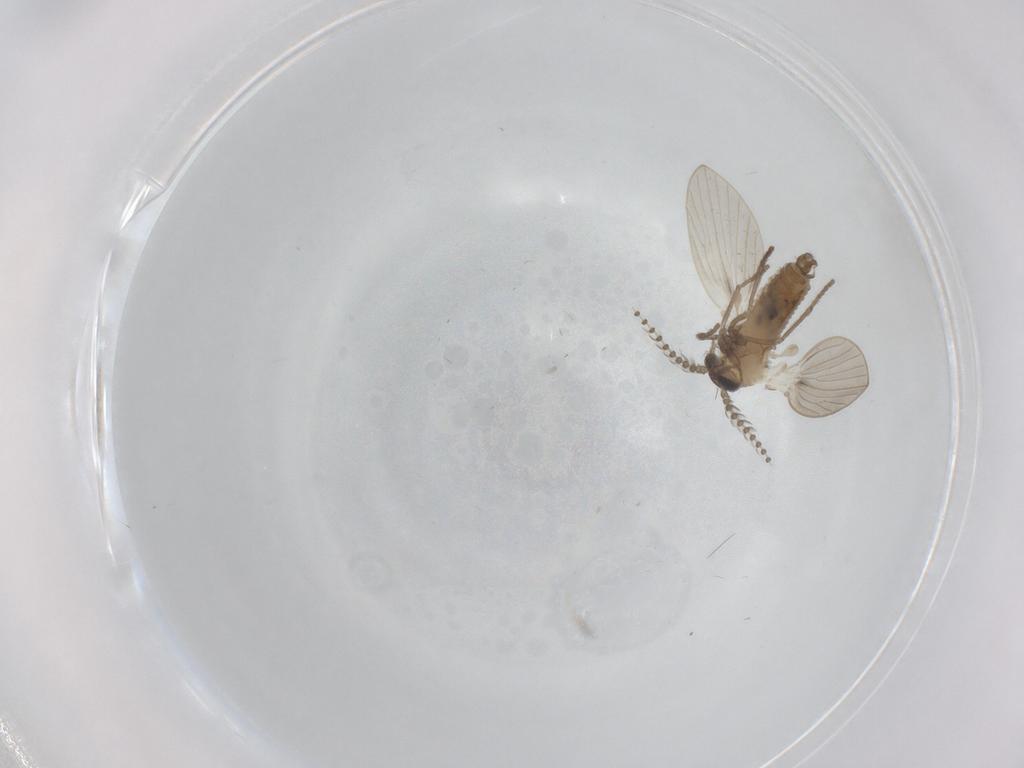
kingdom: Animalia
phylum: Arthropoda
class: Insecta
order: Diptera
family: Psychodidae
